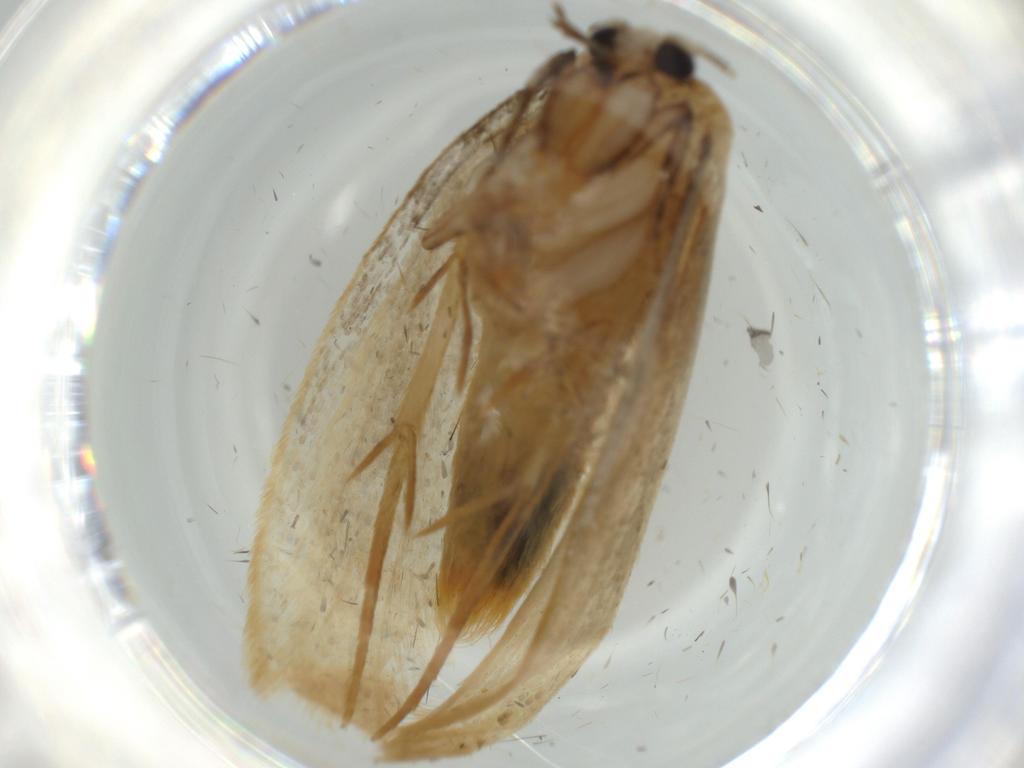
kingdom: Animalia
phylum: Arthropoda
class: Insecta
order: Lepidoptera
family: Tineidae
